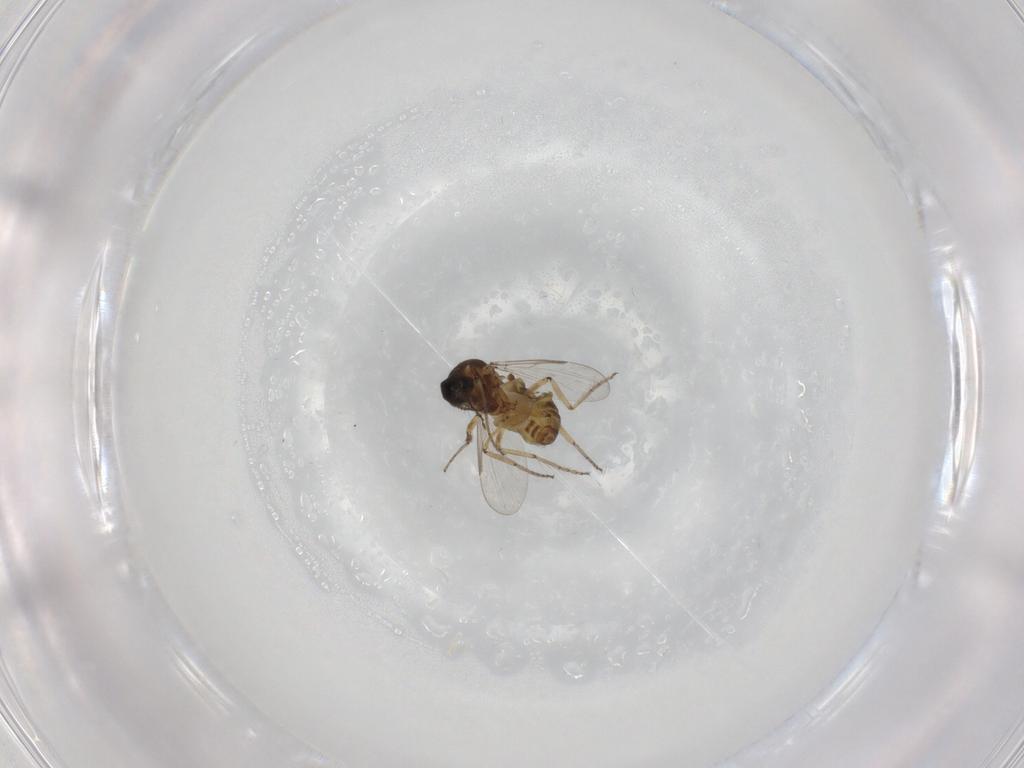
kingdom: Animalia
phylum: Arthropoda
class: Insecta
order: Diptera
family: Ceratopogonidae
